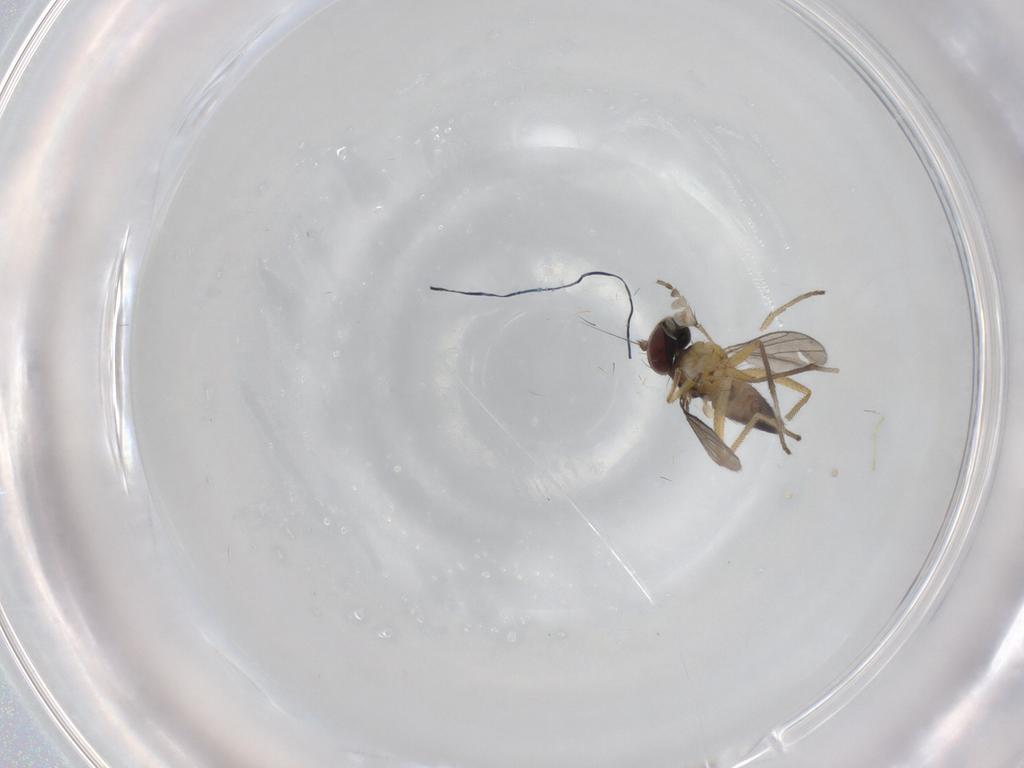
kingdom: Animalia
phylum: Arthropoda
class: Insecta
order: Diptera
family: Dolichopodidae
